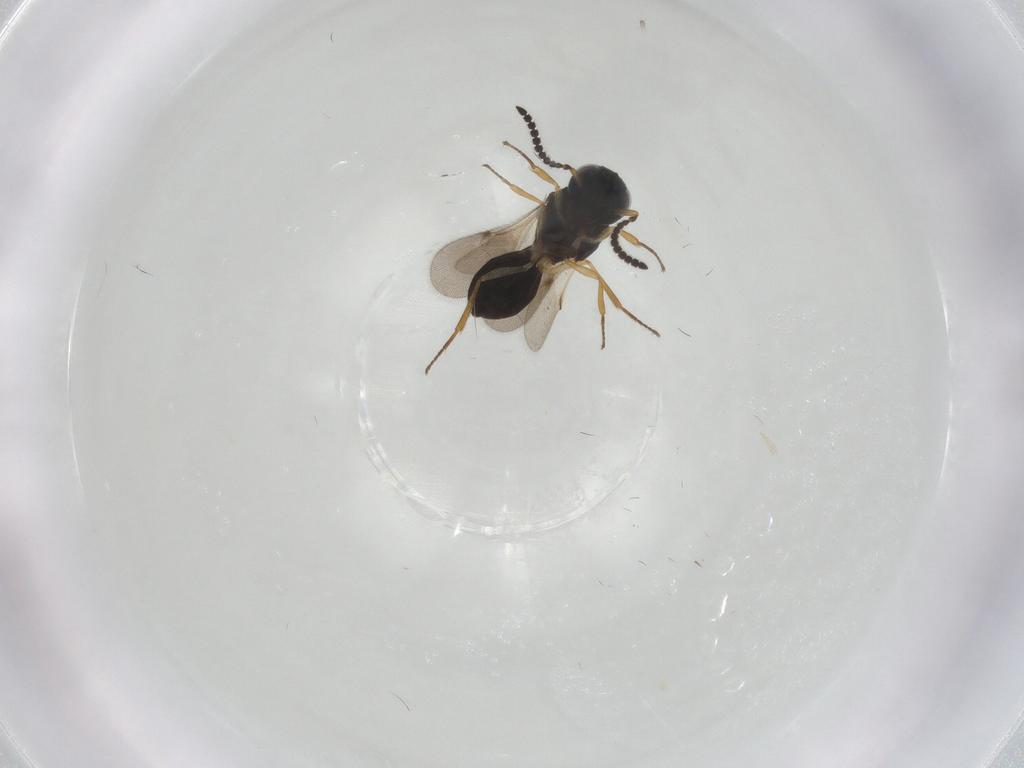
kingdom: Animalia
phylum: Arthropoda
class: Insecta
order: Hymenoptera
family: Scelionidae
